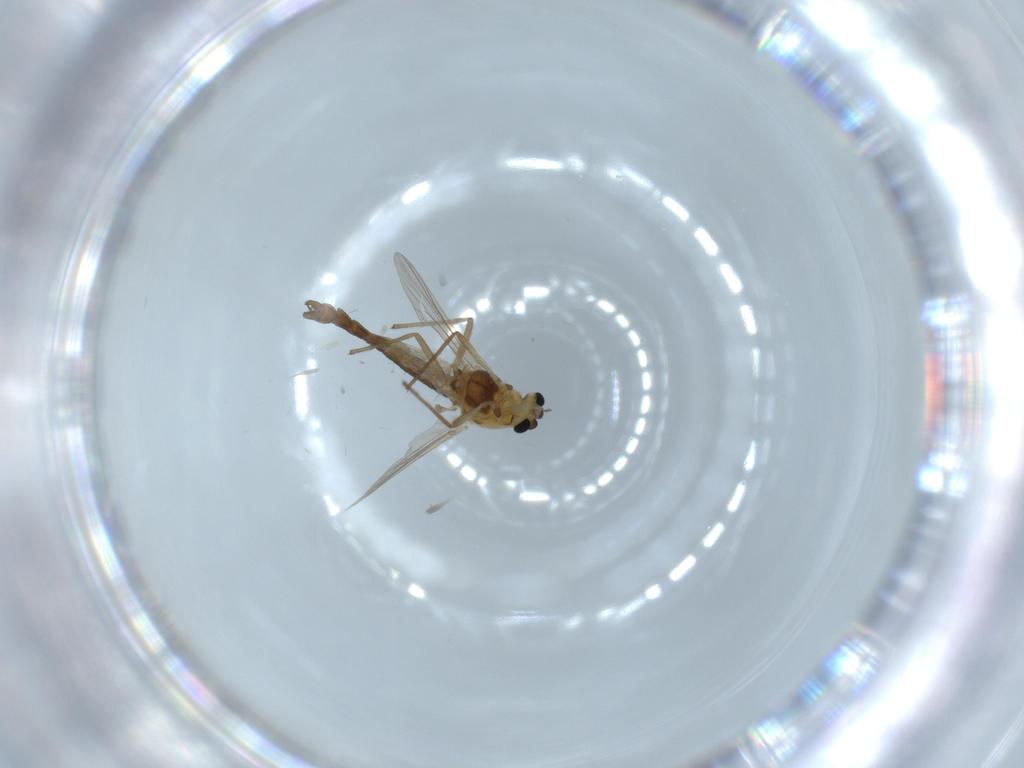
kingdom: Animalia
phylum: Arthropoda
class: Insecta
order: Diptera
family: Chironomidae
